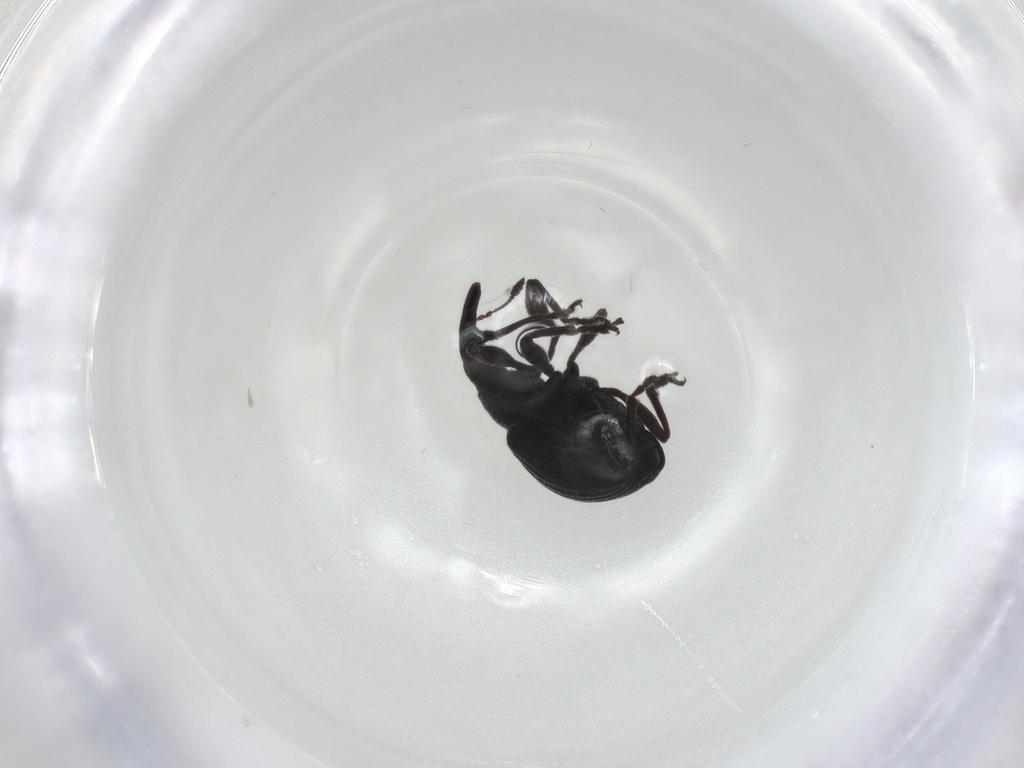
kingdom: Animalia
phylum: Arthropoda
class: Insecta
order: Coleoptera
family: Brentidae
